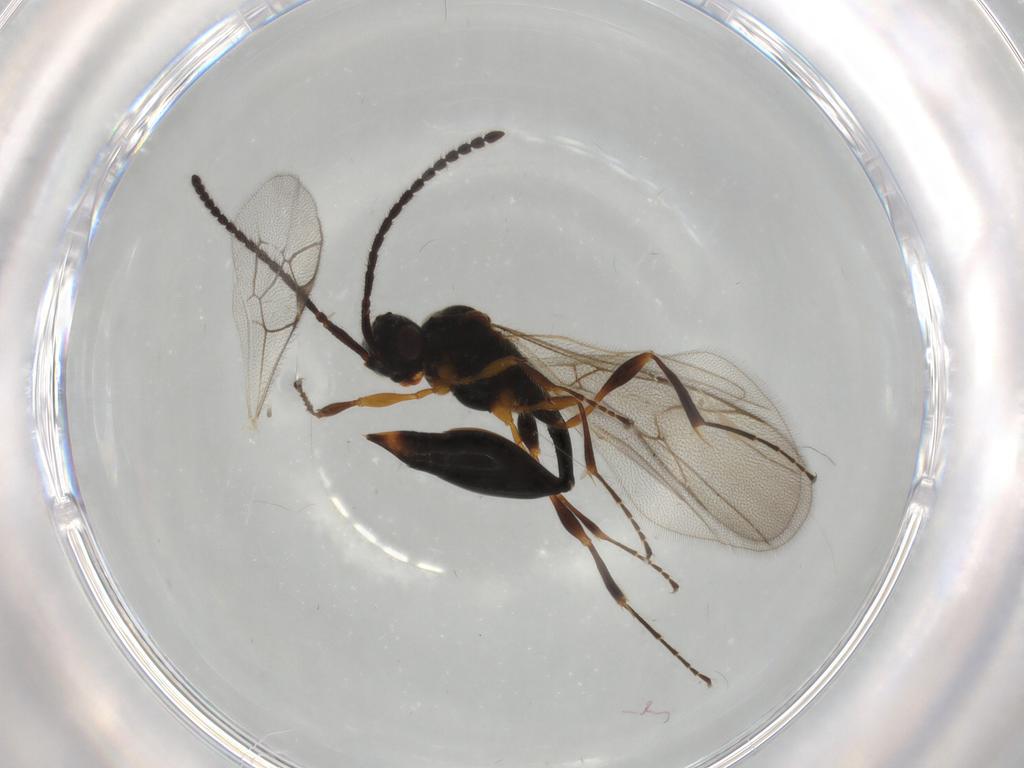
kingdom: Animalia
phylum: Arthropoda
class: Insecta
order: Hymenoptera
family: Diapriidae
